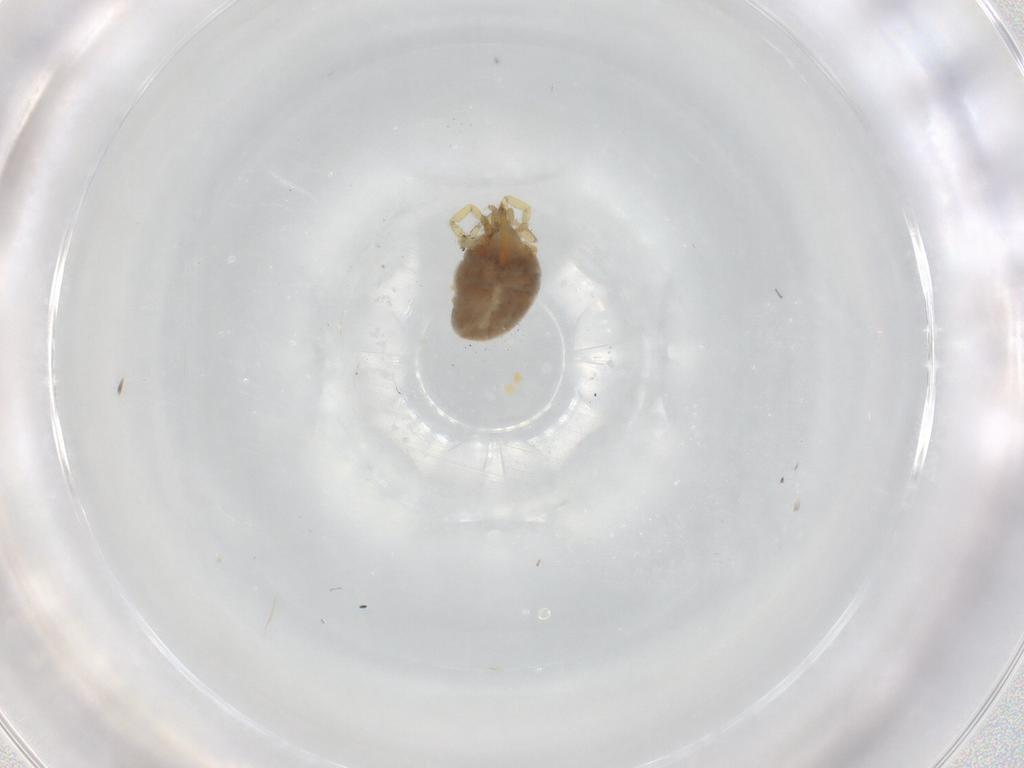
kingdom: Animalia
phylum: Arthropoda
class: Arachnida
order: Trombidiformes
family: Erythraeidae
